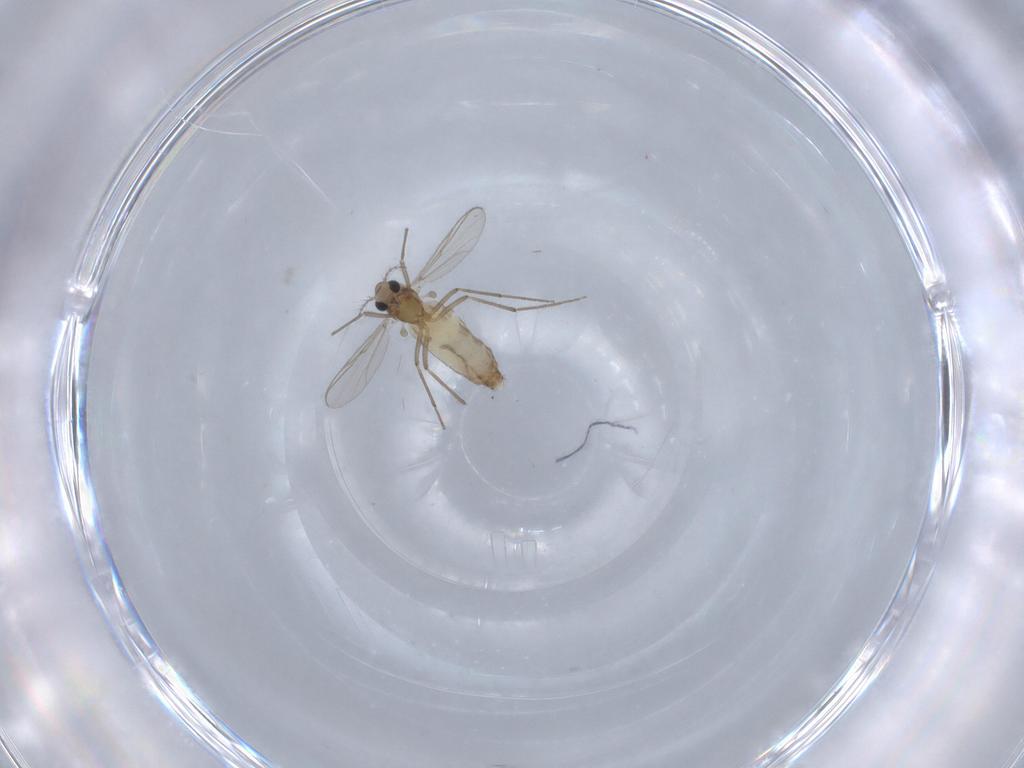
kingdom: Animalia
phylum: Arthropoda
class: Insecta
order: Diptera
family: Chironomidae
